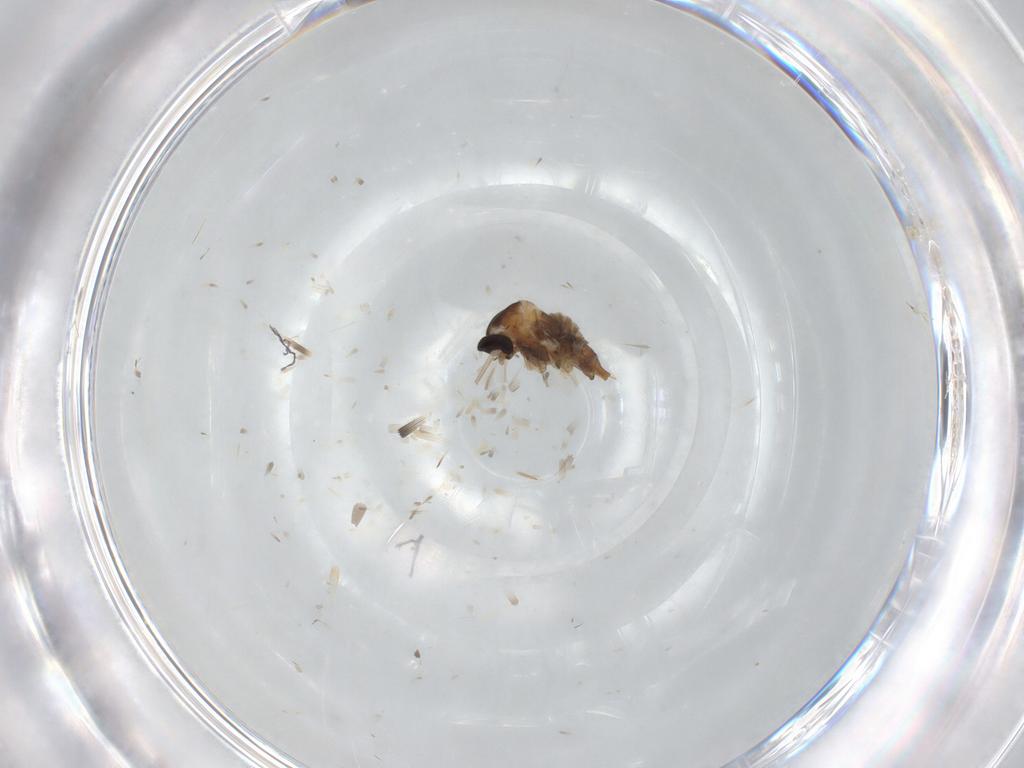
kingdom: Animalia
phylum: Arthropoda
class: Insecta
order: Diptera
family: Cecidomyiidae
